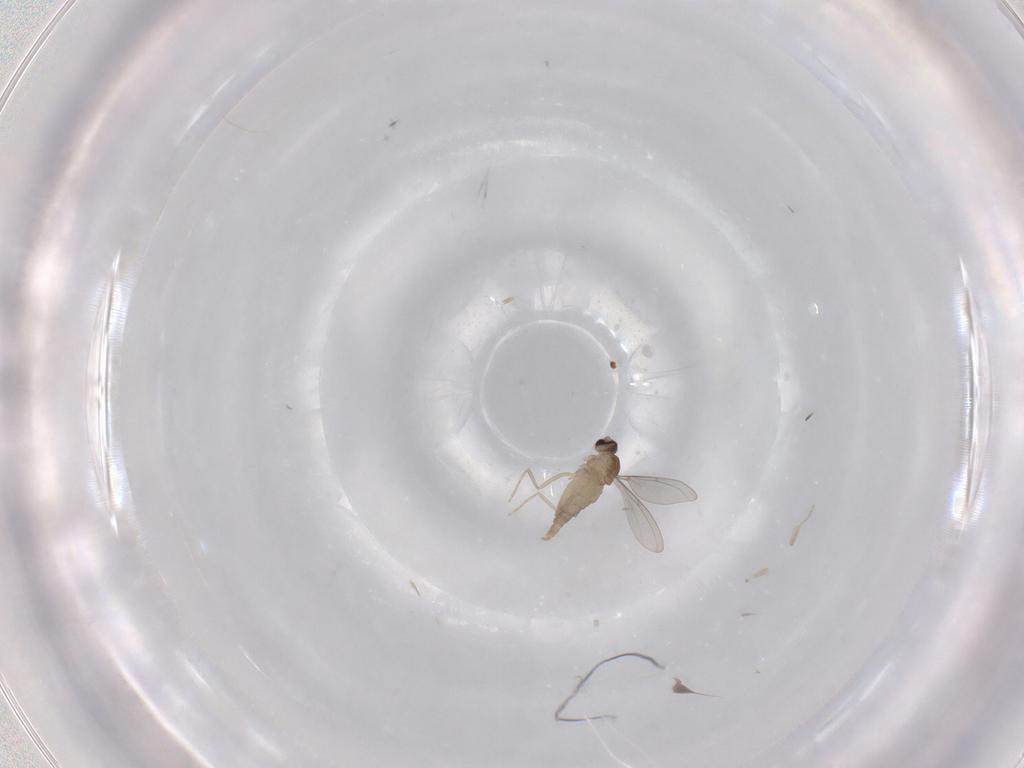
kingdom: Animalia
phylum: Arthropoda
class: Insecta
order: Diptera
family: Cecidomyiidae
